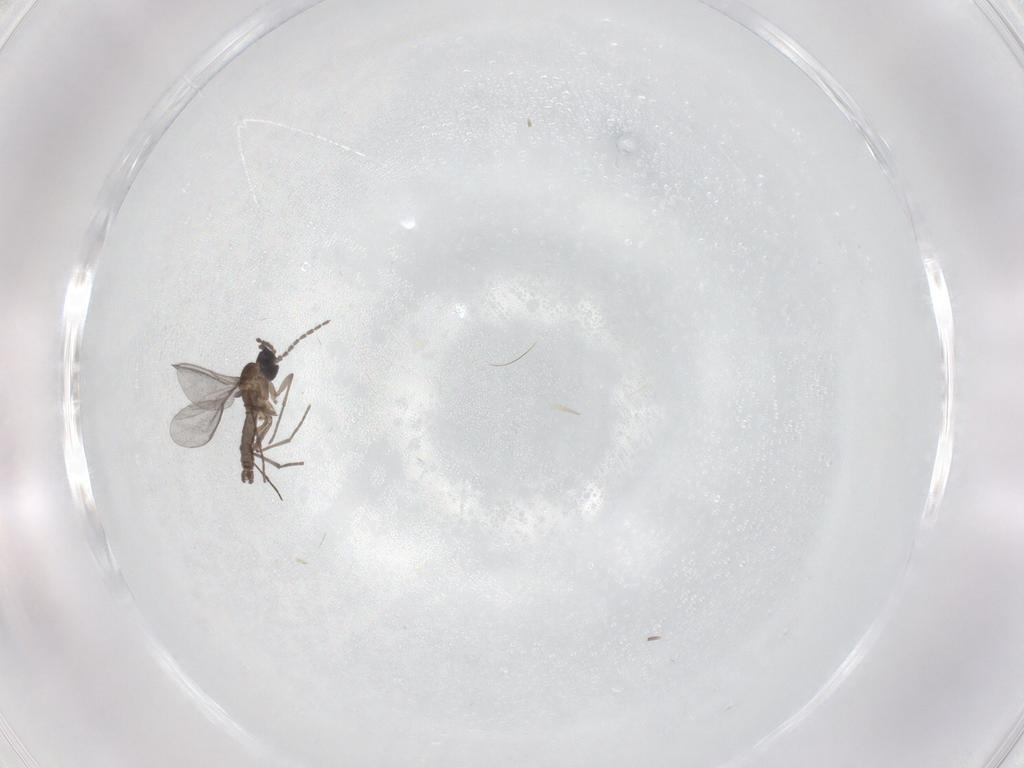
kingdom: Animalia
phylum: Arthropoda
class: Insecta
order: Diptera
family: Sciaridae
